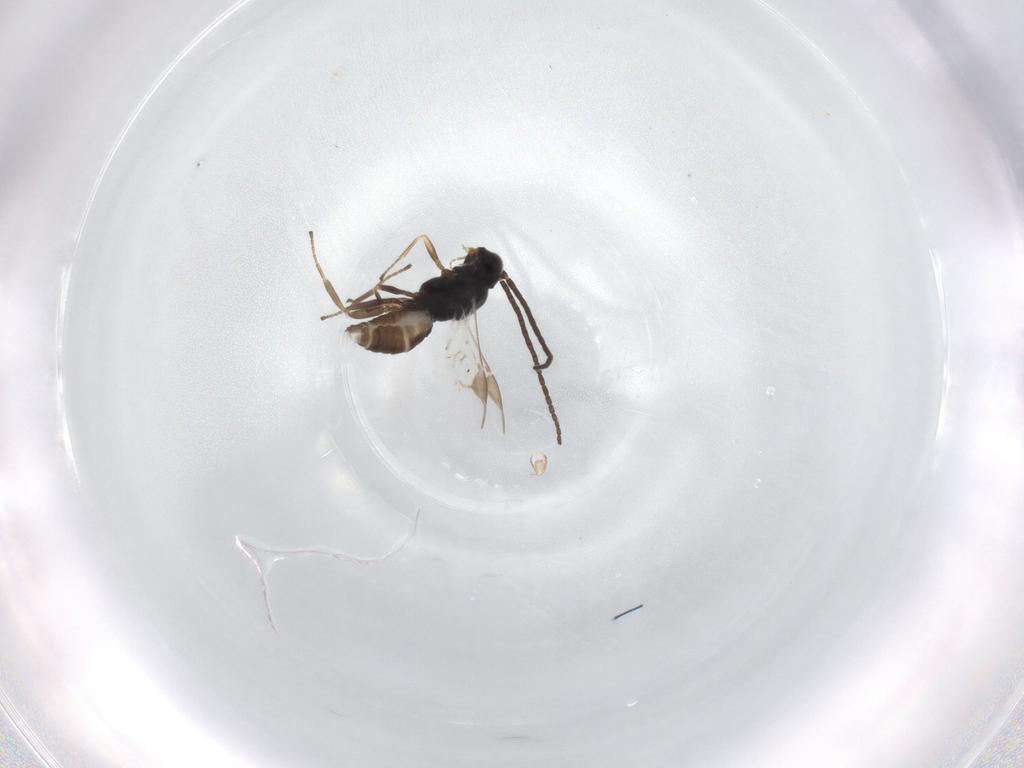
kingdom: Animalia
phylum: Arthropoda
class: Insecta
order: Hymenoptera
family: Braconidae
